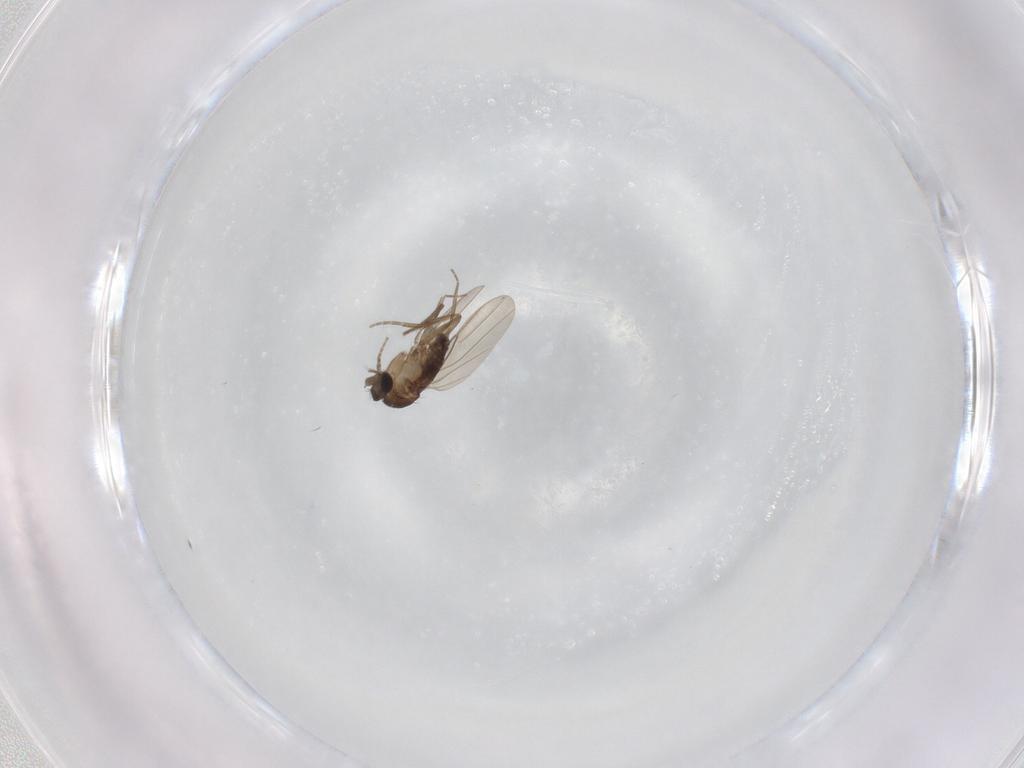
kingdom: Animalia
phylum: Arthropoda
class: Insecta
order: Diptera
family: Phoridae
